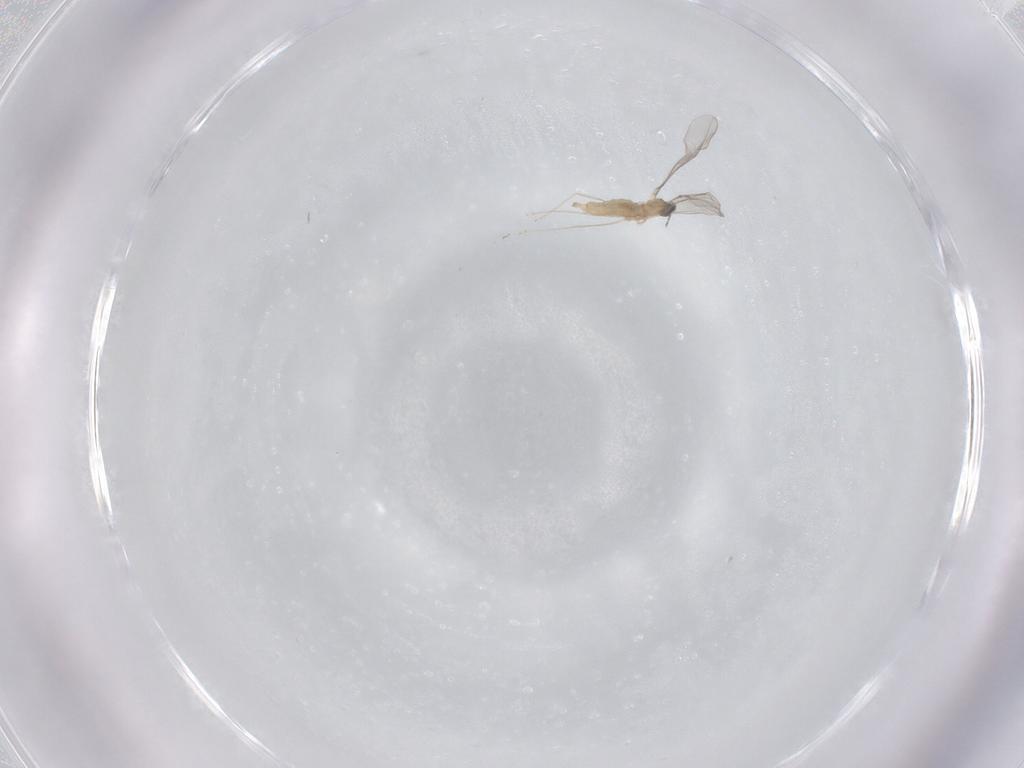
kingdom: Animalia
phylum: Arthropoda
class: Insecta
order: Diptera
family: Cecidomyiidae
